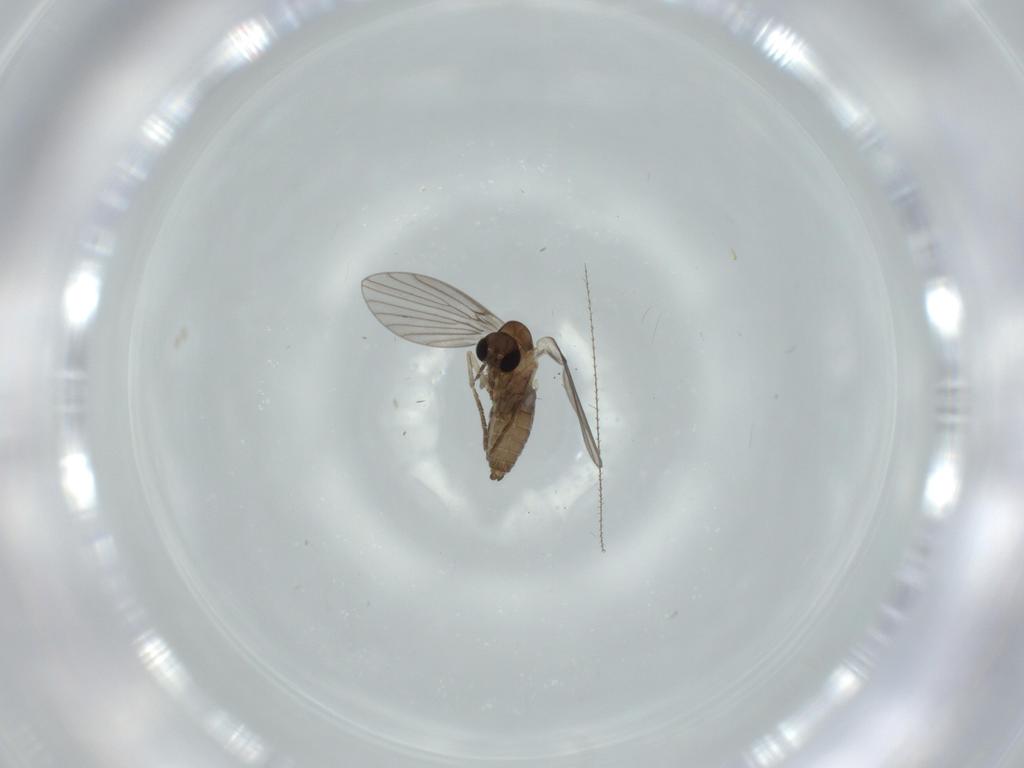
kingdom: Animalia
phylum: Arthropoda
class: Insecta
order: Diptera
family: Psychodidae
